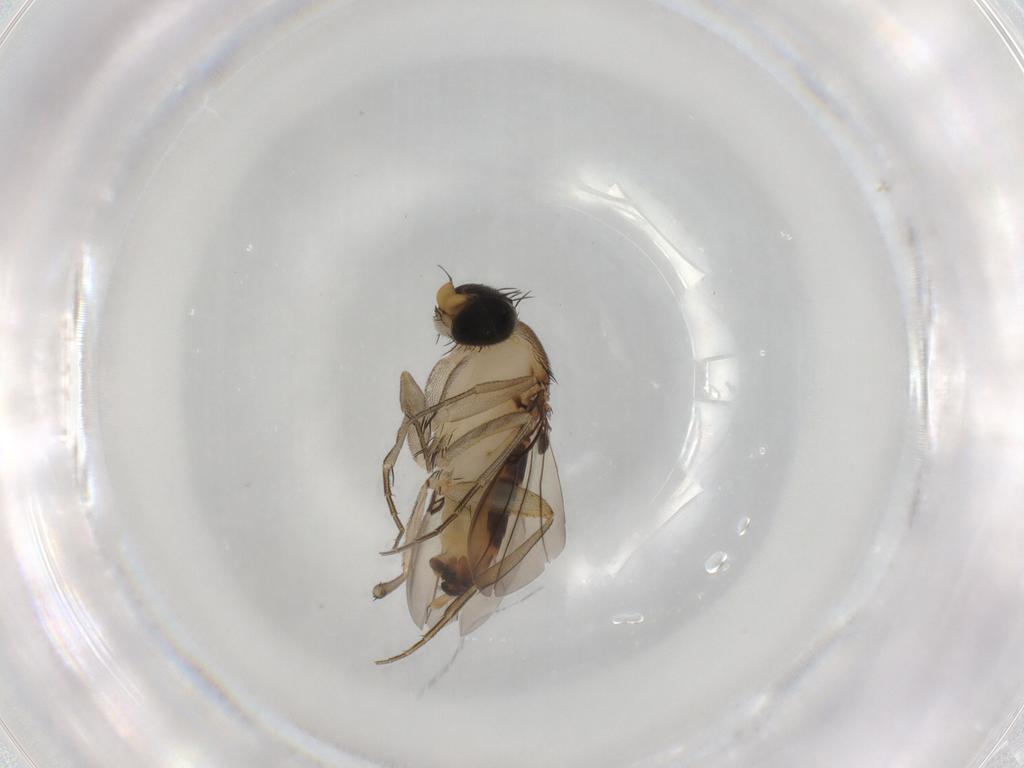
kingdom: Animalia
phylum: Arthropoda
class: Insecta
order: Diptera
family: Phoridae
